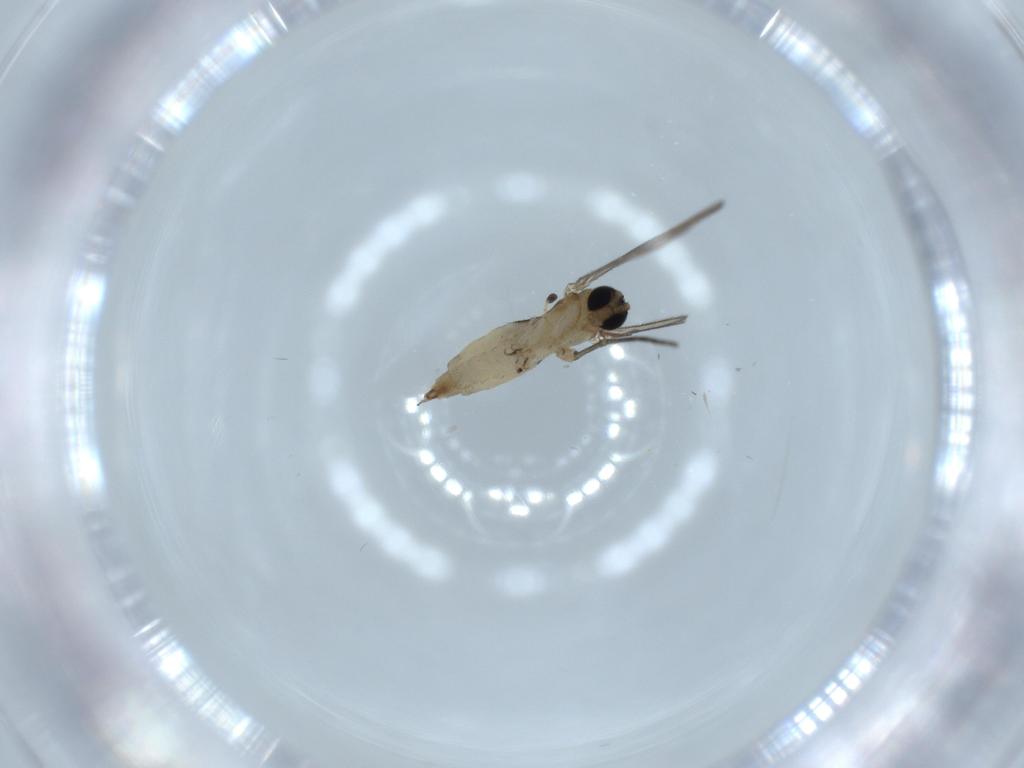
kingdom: Animalia
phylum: Arthropoda
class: Insecta
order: Diptera
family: Sciaridae
